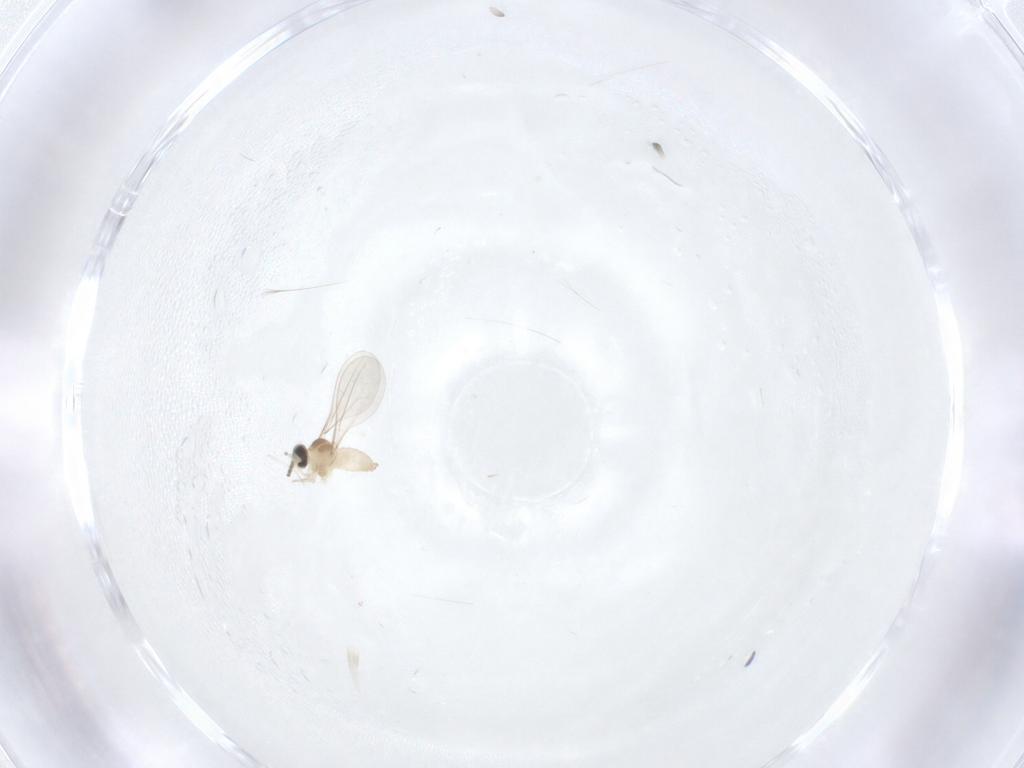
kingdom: Animalia
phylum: Arthropoda
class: Insecta
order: Diptera
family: Cecidomyiidae
